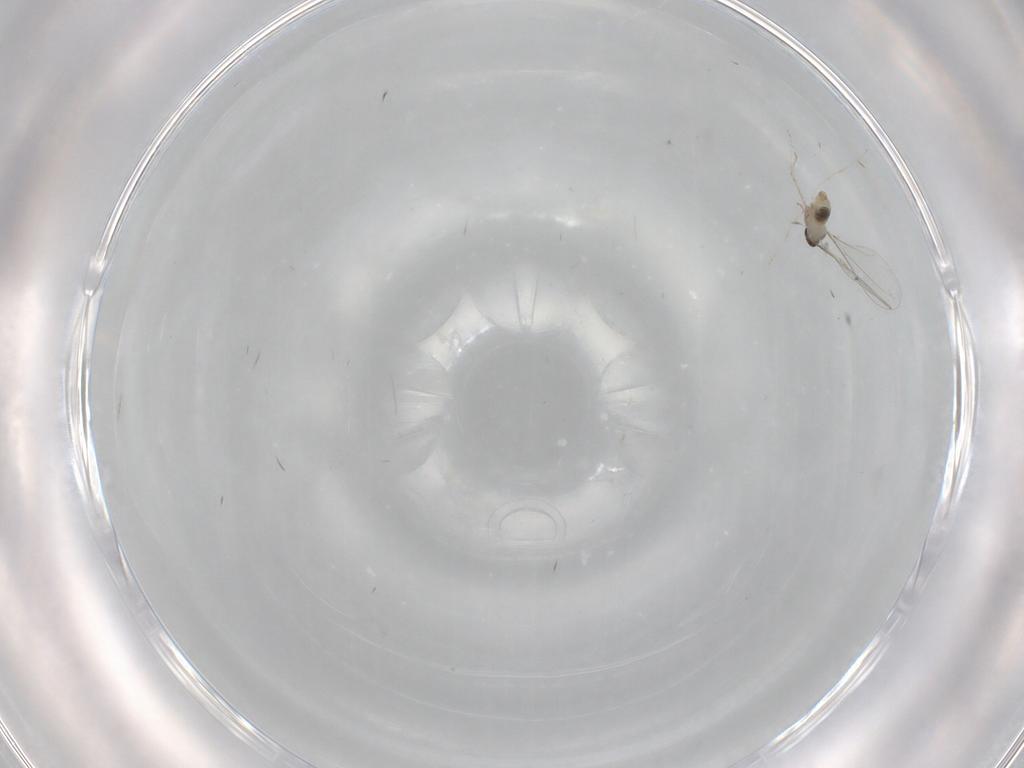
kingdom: Animalia
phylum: Arthropoda
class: Insecta
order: Diptera
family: Cecidomyiidae
